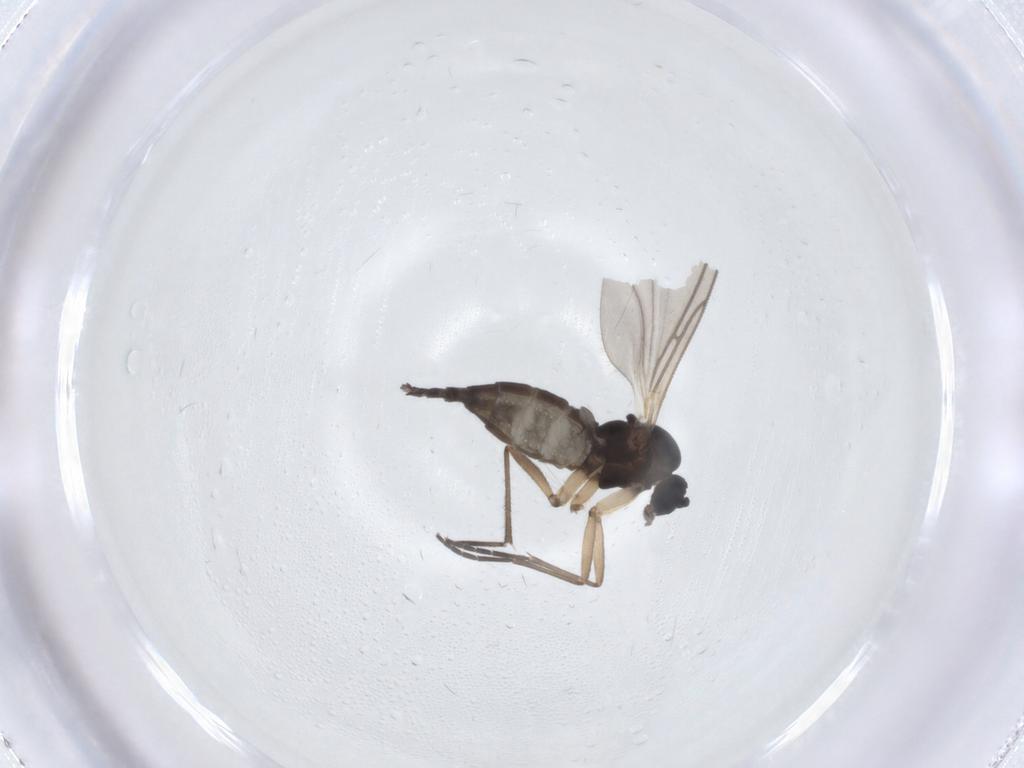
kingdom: Animalia
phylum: Arthropoda
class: Insecta
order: Diptera
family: Sciaridae
